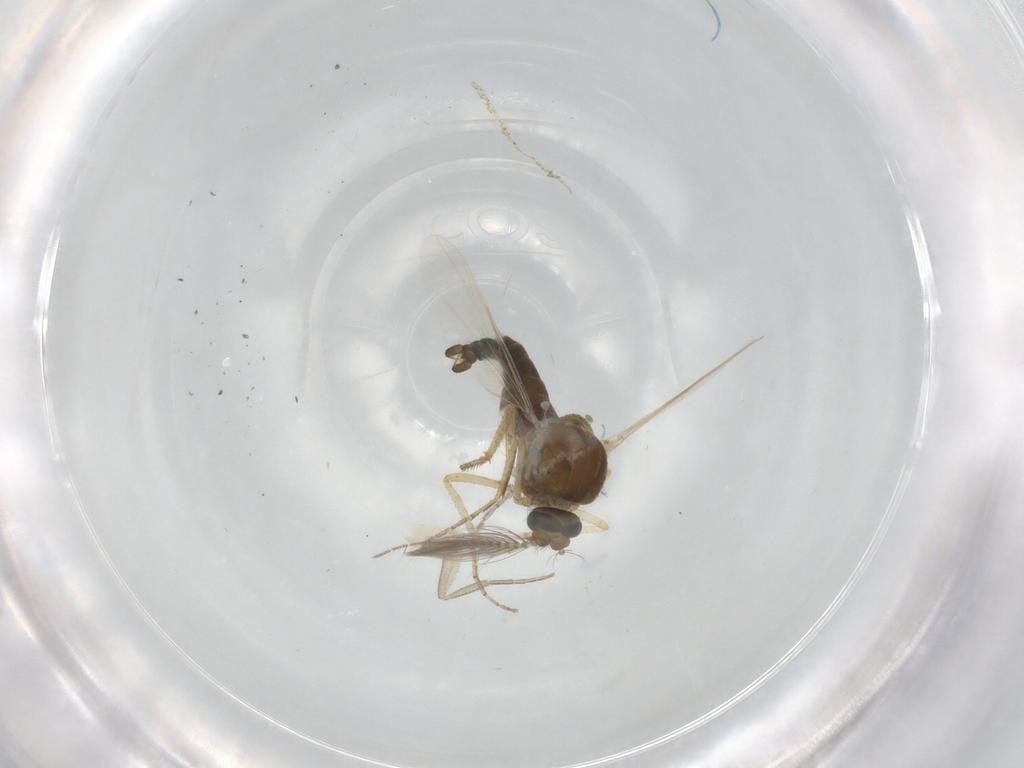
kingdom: Animalia
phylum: Arthropoda
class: Insecta
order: Diptera
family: Phoridae
